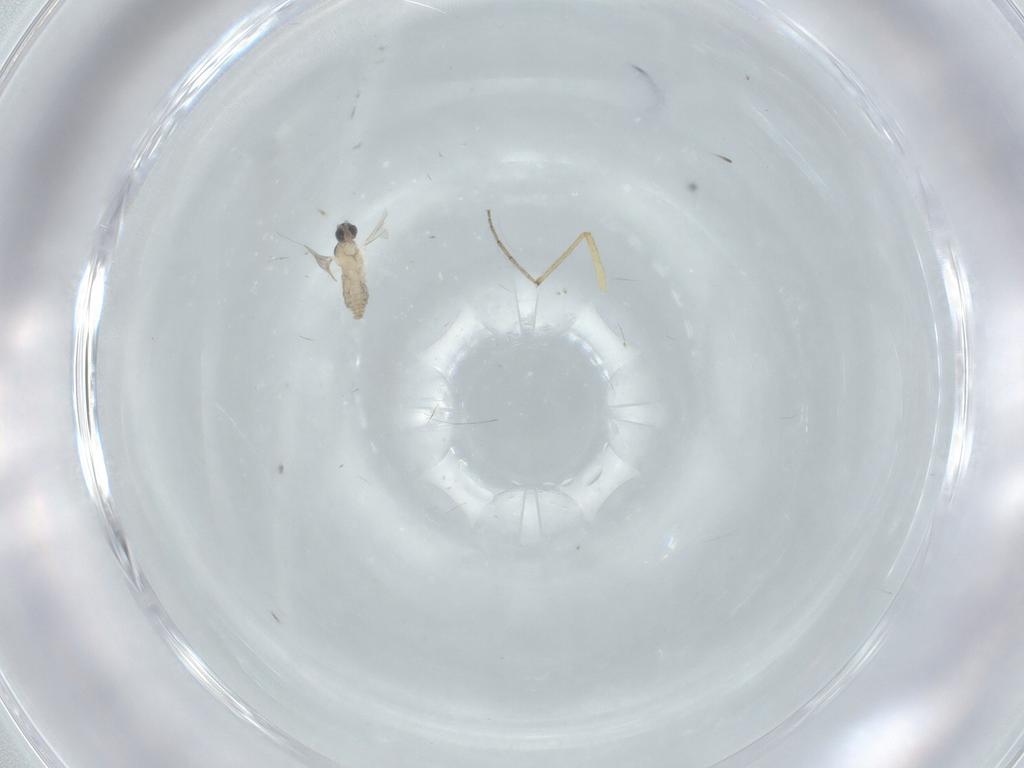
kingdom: Animalia
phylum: Arthropoda
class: Insecta
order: Diptera
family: Cecidomyiidae
